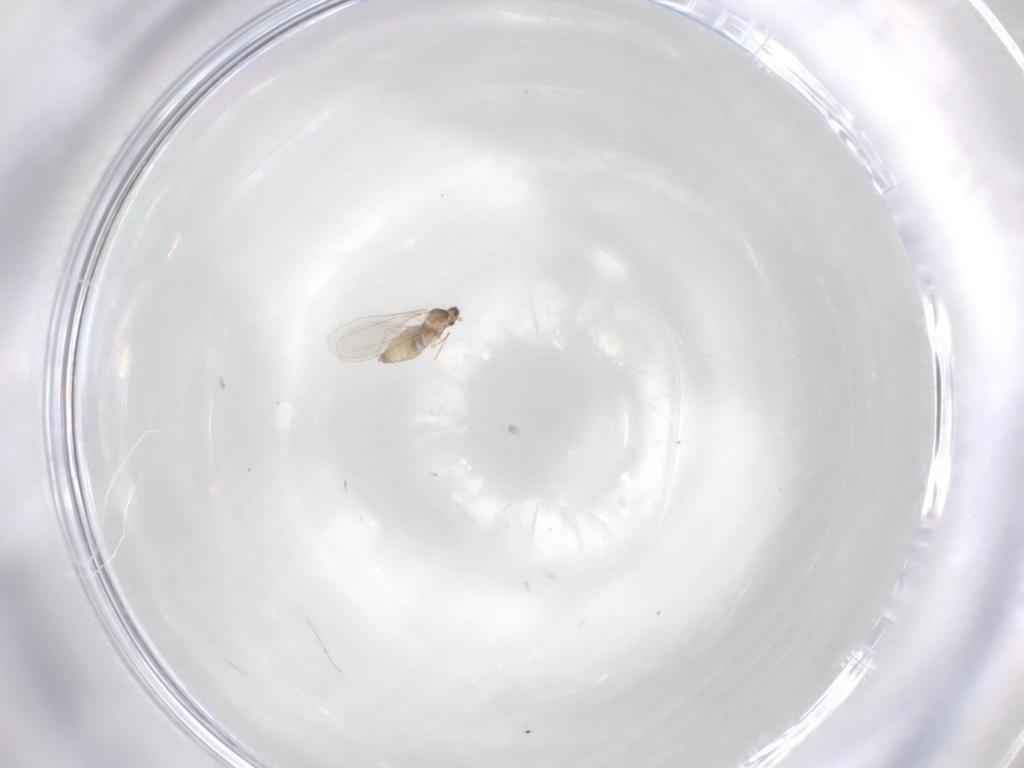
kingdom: Animalia
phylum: Arthropoda
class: Insecta
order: Diptera
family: Cecidomyiidae
